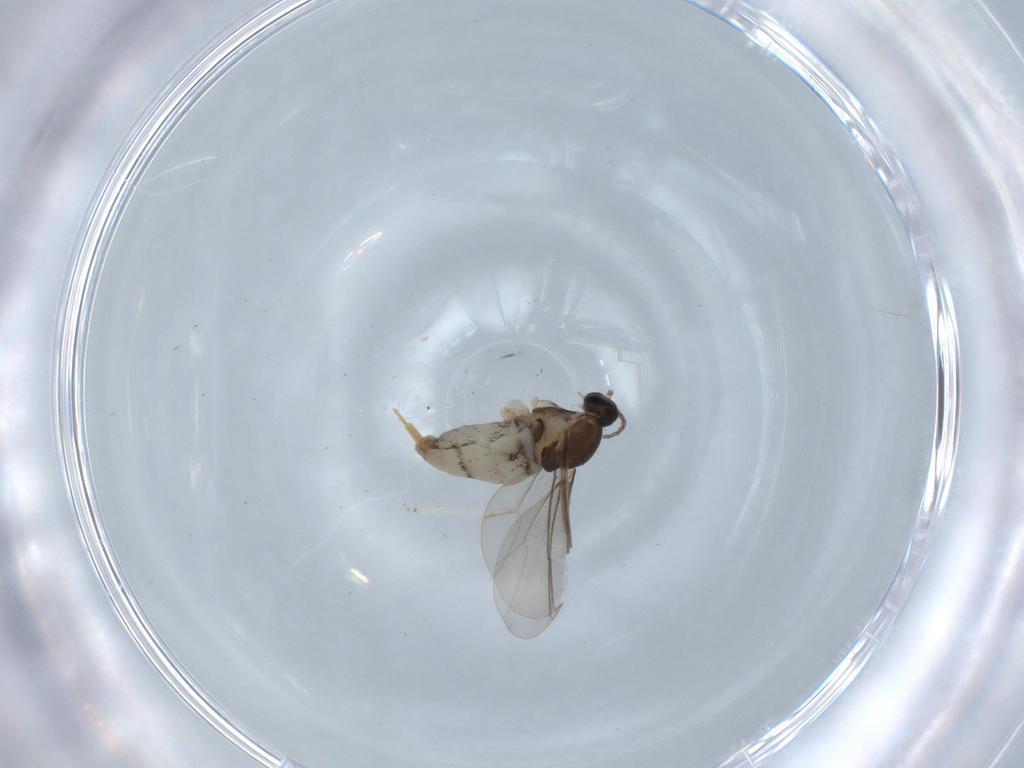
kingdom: Animalia
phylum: Arthropoda
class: Insecta
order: Diptera
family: Cecidomyiidae
